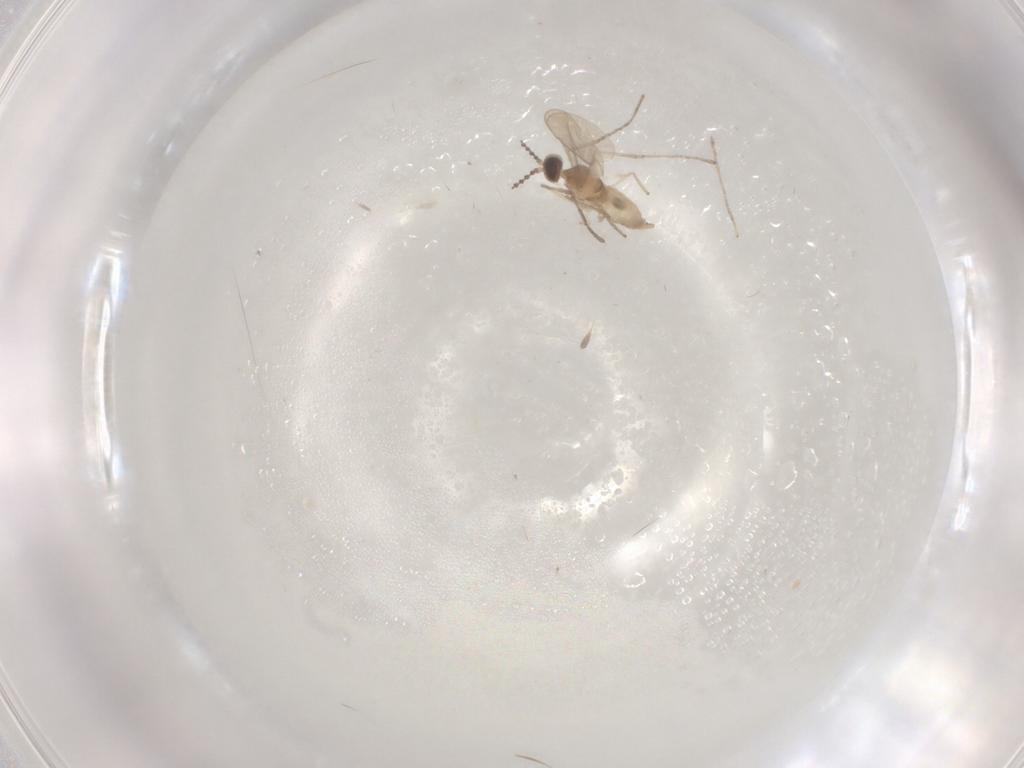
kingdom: Animalia
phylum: Arthropoda
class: Insecta
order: Diptera
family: Cecidomyiidae
